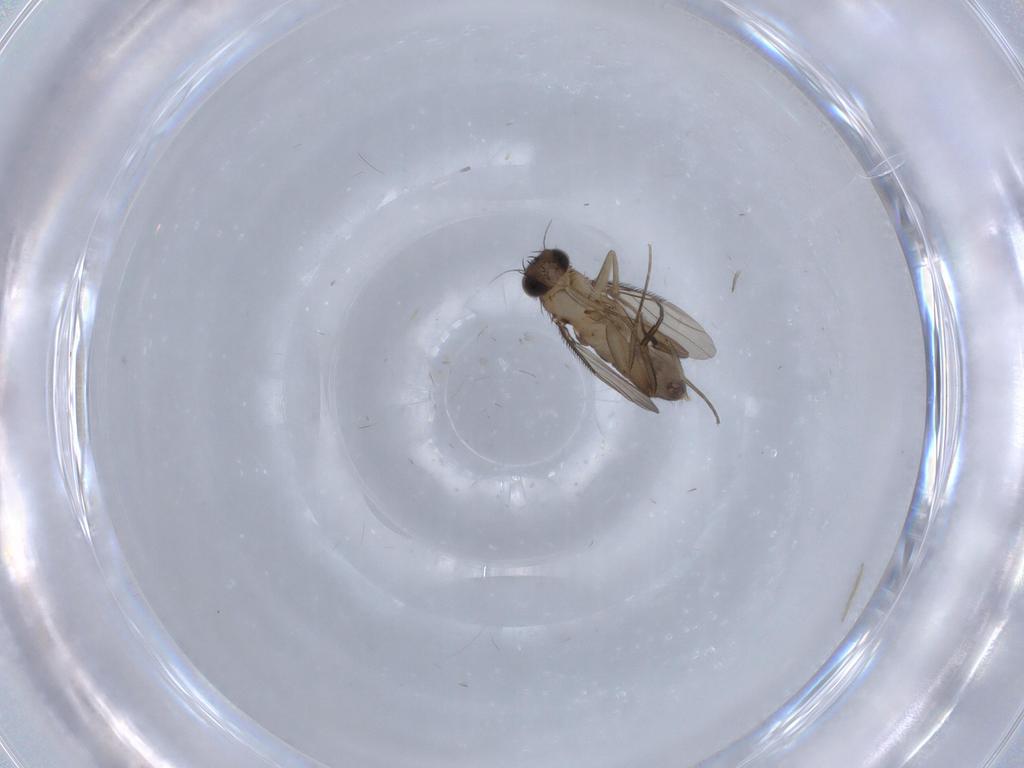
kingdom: Animalia
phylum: Arthropoda
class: Insecta
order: Diptera
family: Phoridae
